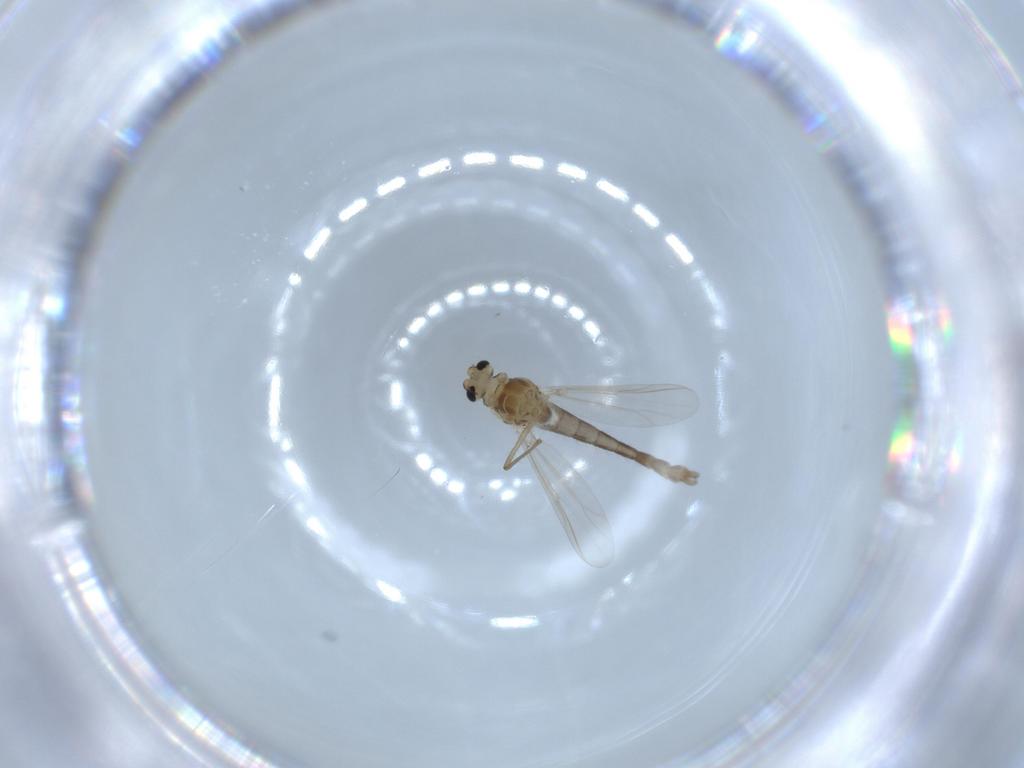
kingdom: Animalia
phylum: Arthropoda
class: Insecta
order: Diptera
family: Chironomidae
